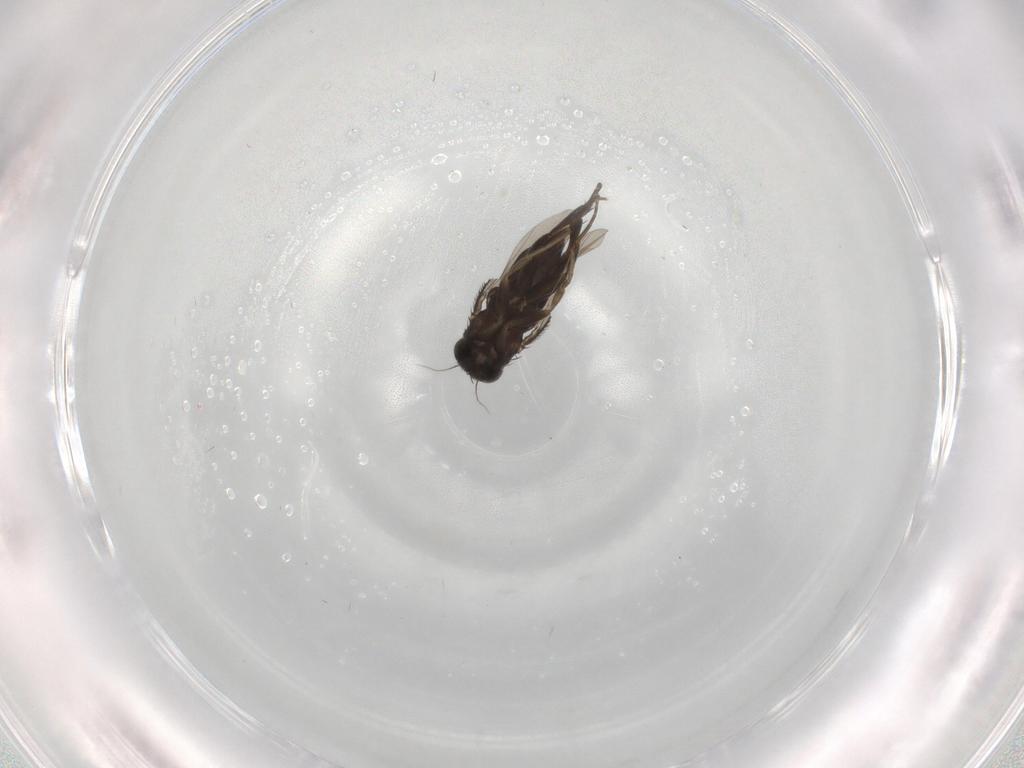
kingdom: Animalia
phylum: Arthropoda
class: Insecta
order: Diptera
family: Phoridae
